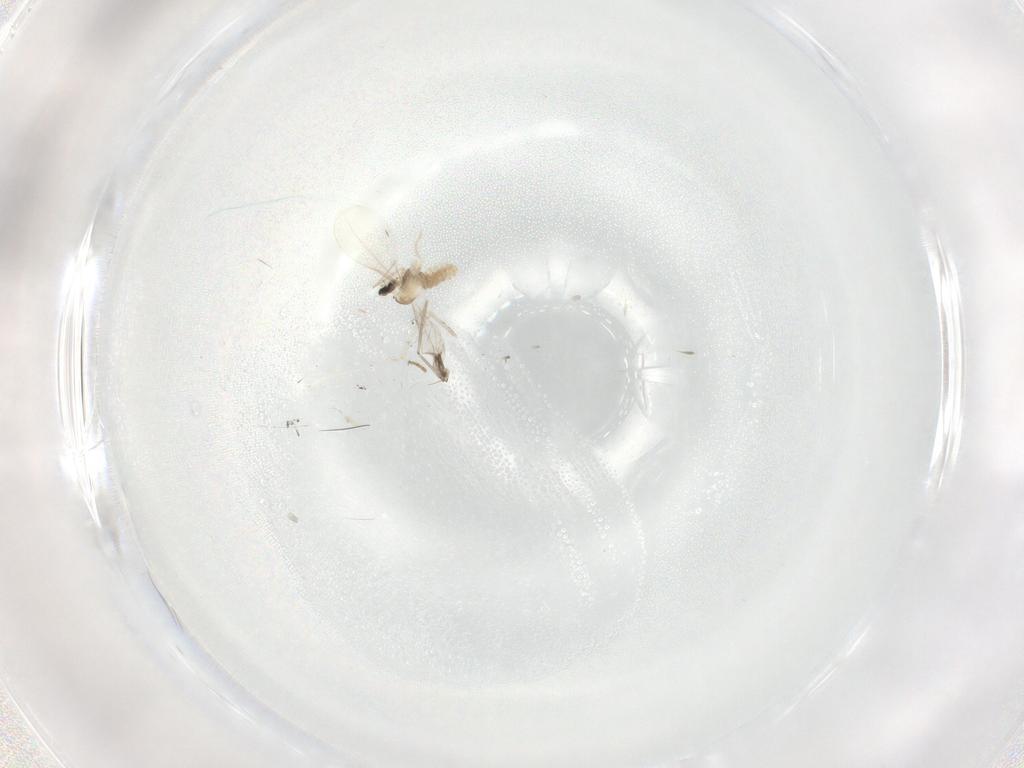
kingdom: Animalia
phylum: Arthropoda
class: Insecta
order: Diptera
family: Cecidomyiidae
